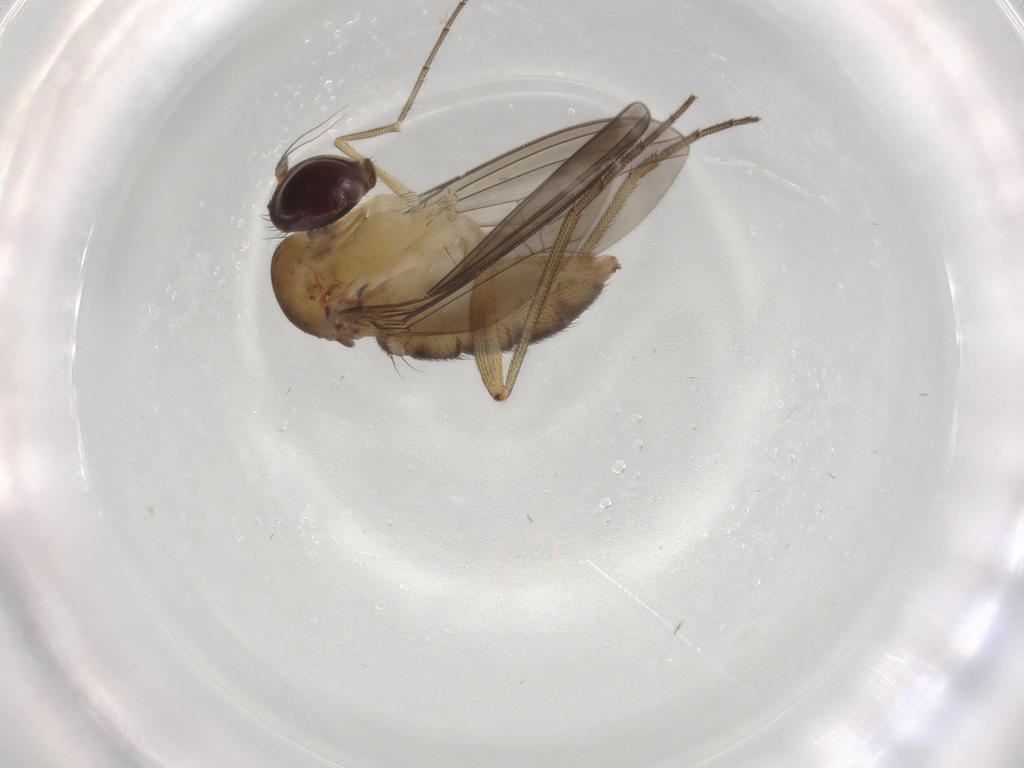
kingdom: Animalia
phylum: Arthropoda
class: Insecta
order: Diptera
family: Dolichopodidae
